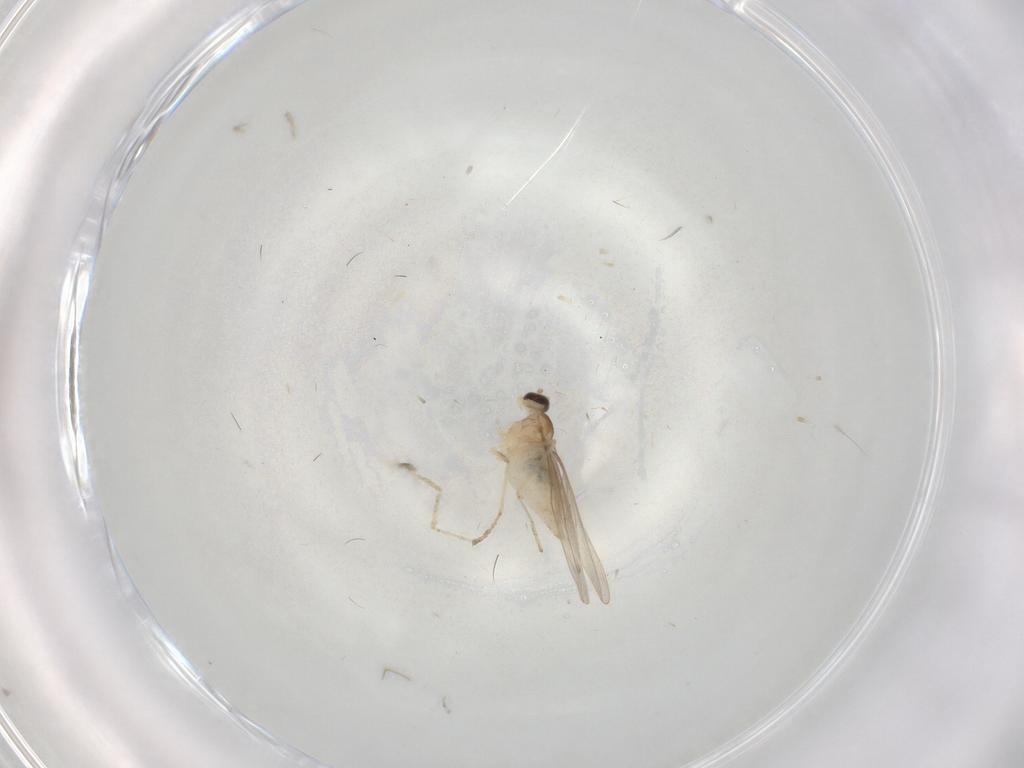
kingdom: Animalia
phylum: Arthropoda
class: Insecta
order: Diptera
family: Cecidomyiidae
